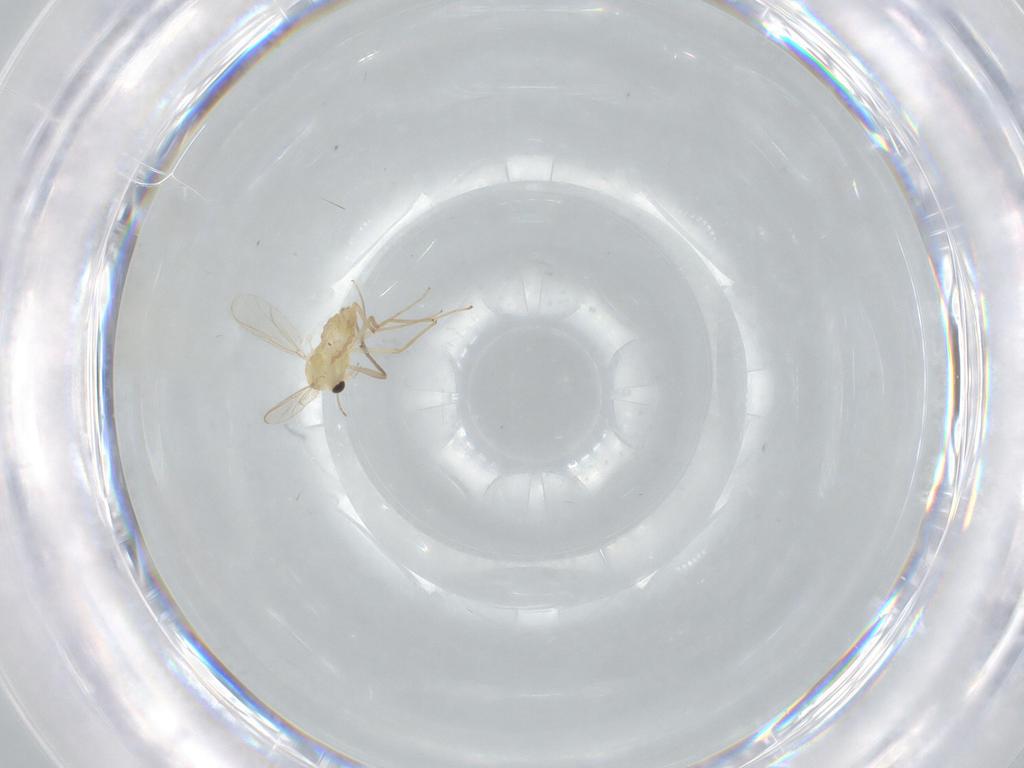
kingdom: Animalia
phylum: Arthropoda
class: Insecta
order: Diptera
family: Chironomidae
